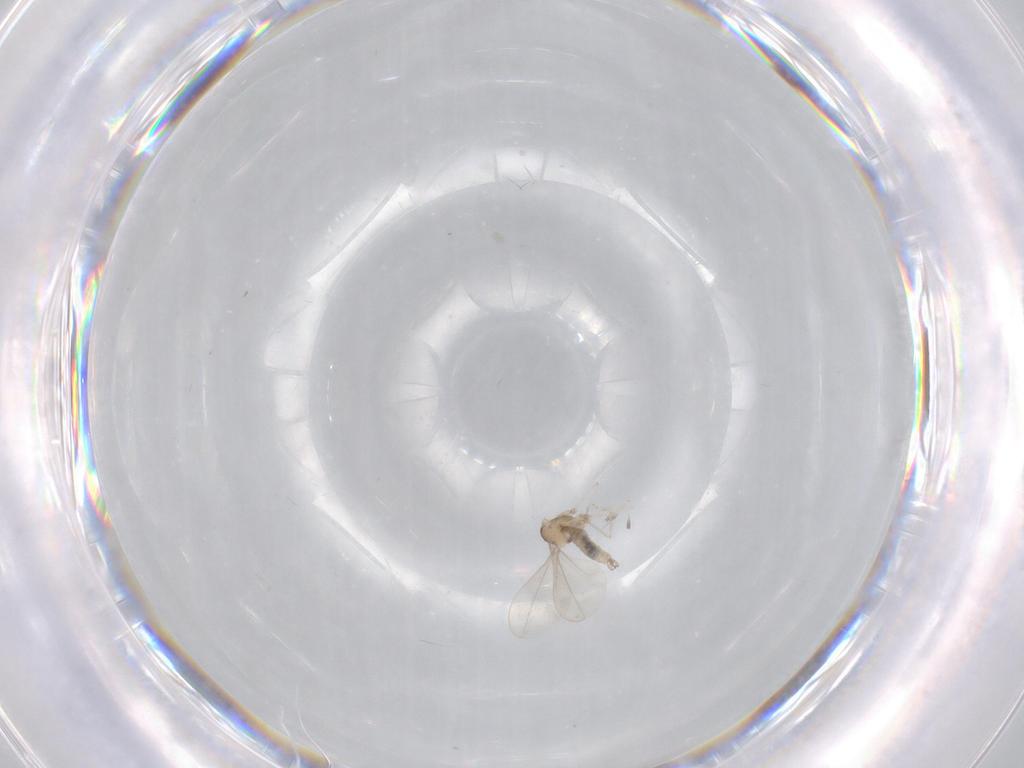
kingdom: Animalia
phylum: Arthropoda
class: Insecta
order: Diptera
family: Cecidomyiidae
